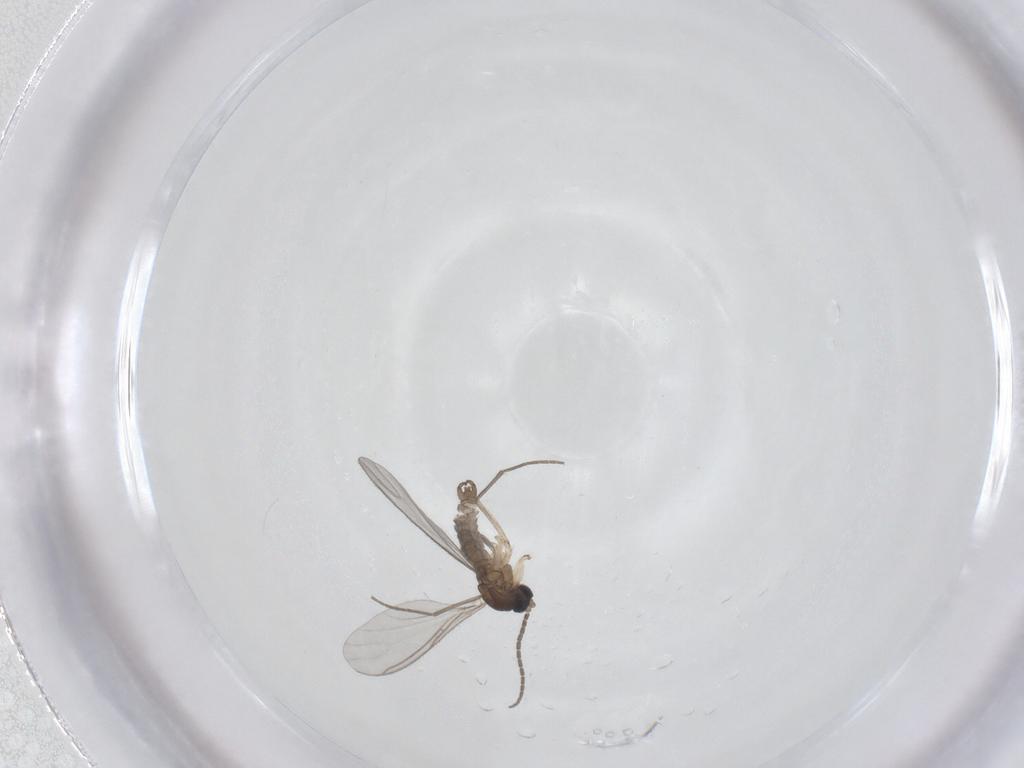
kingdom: Animalia
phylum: Arthropoda
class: Insecta
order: Diptera
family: Sciaridae
